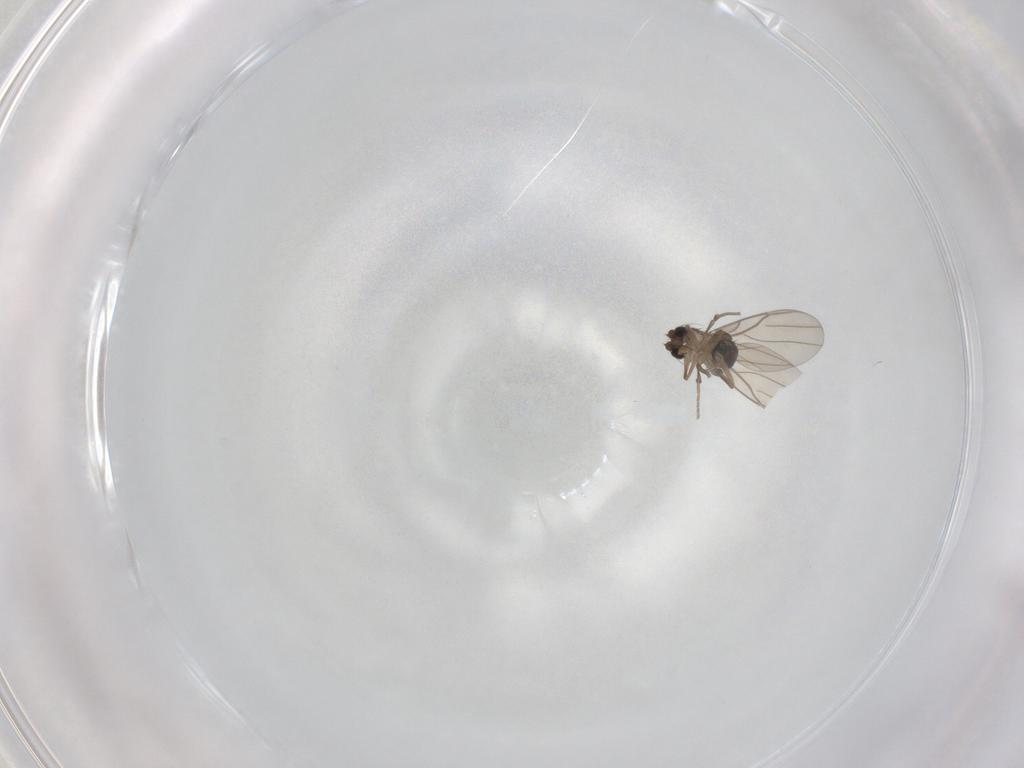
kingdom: Animalia
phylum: Arthropoda
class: Insecta
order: Diptera
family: Phoridae
